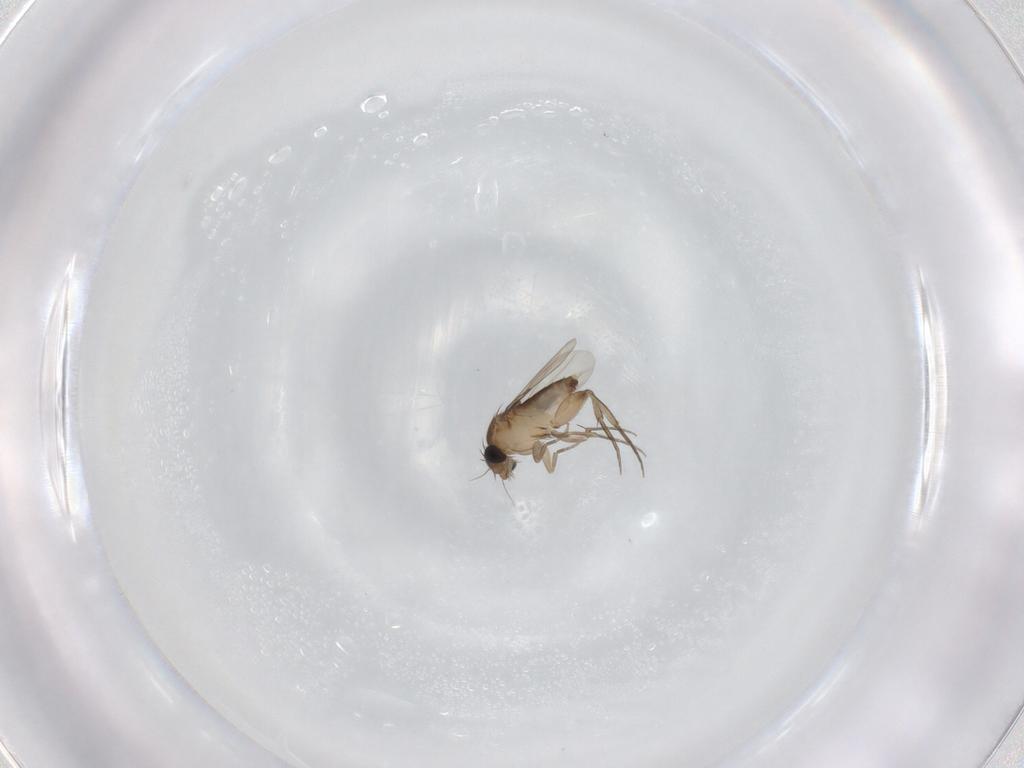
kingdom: Animalia
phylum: Arthropoda
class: Insecta
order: Diptera
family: Phoridae
